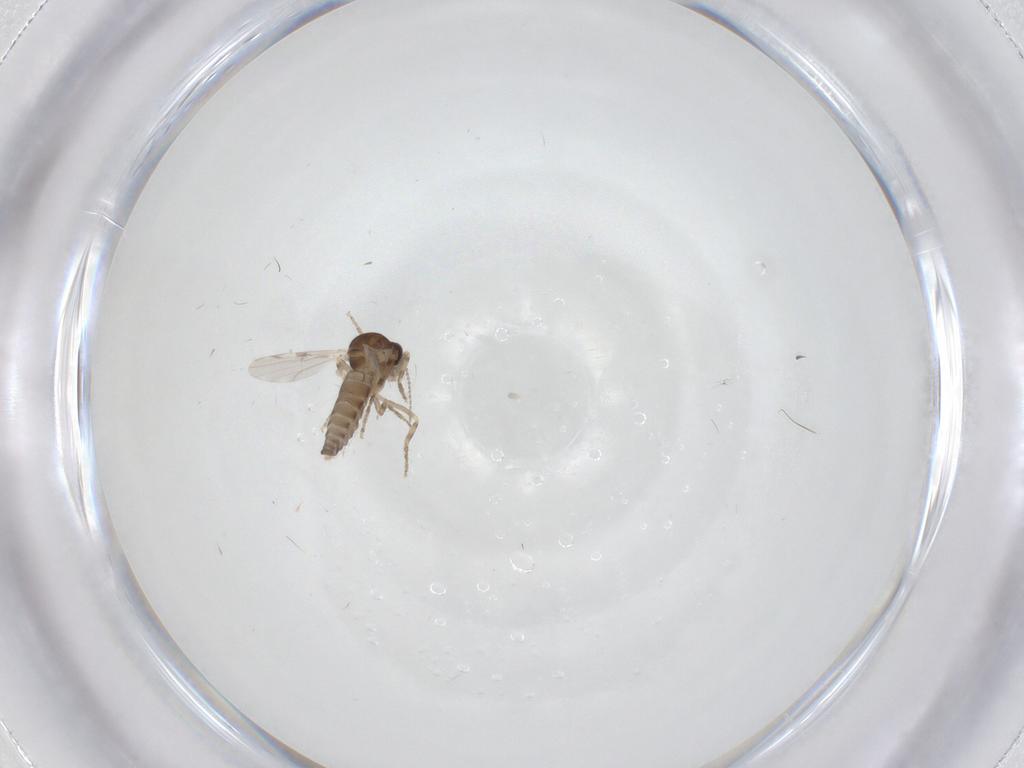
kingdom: Animalia
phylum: Arthropoda
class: Insecta
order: Diptera
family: Ceratopogonidae
